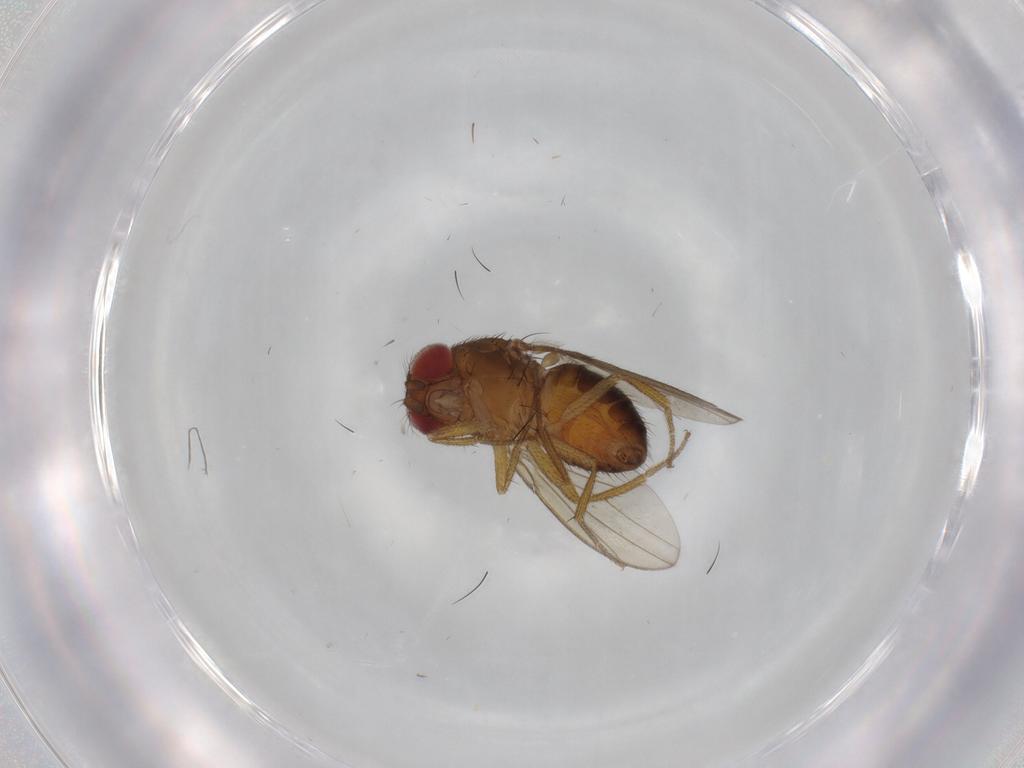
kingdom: Animalia
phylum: Arthropoda
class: Insecta
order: Diptera
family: Drosophilidae
